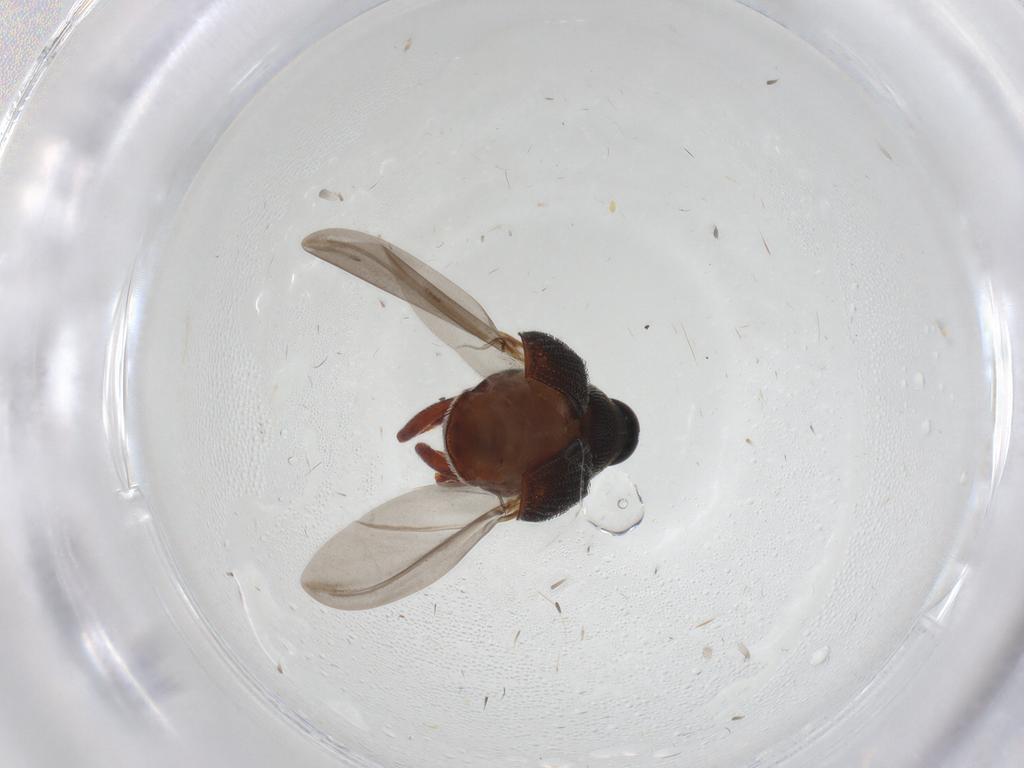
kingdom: Animalia
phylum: Arthropoda
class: Insecta
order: Coleoptera
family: Curculionidae
